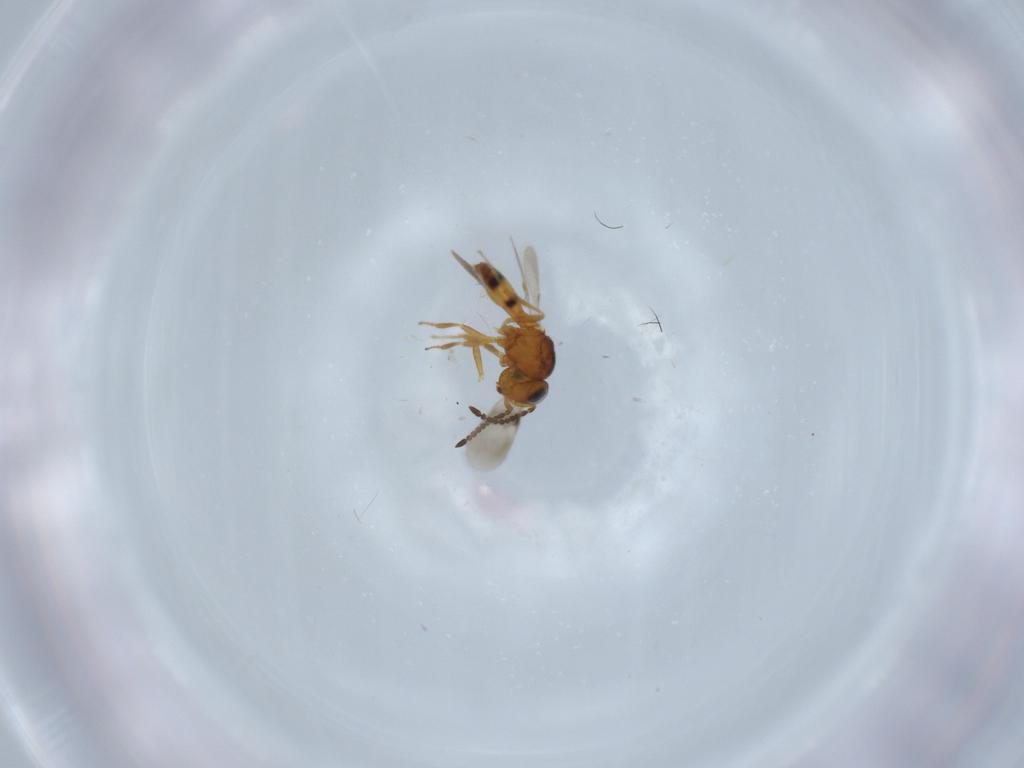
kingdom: Animalia
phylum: Arthropoda
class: Insecta
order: Hymenoptera
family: Scelionidae
